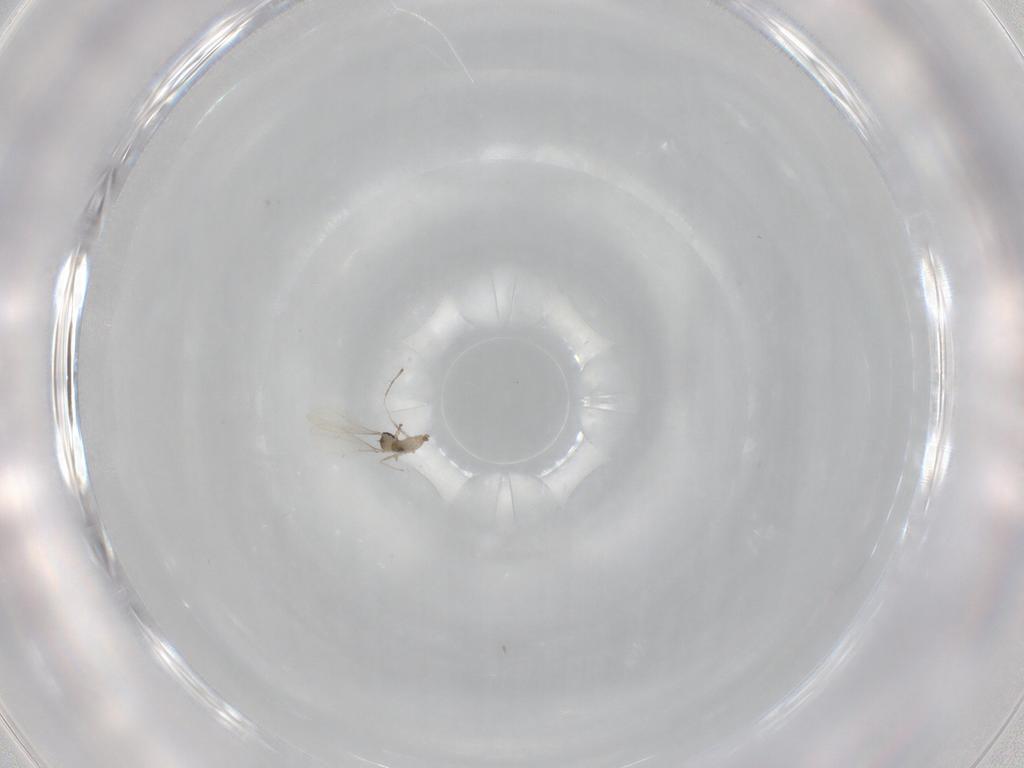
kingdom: Animalia
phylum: Arthropoda
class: Insecta
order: Diptera
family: Cecidomyiidae
